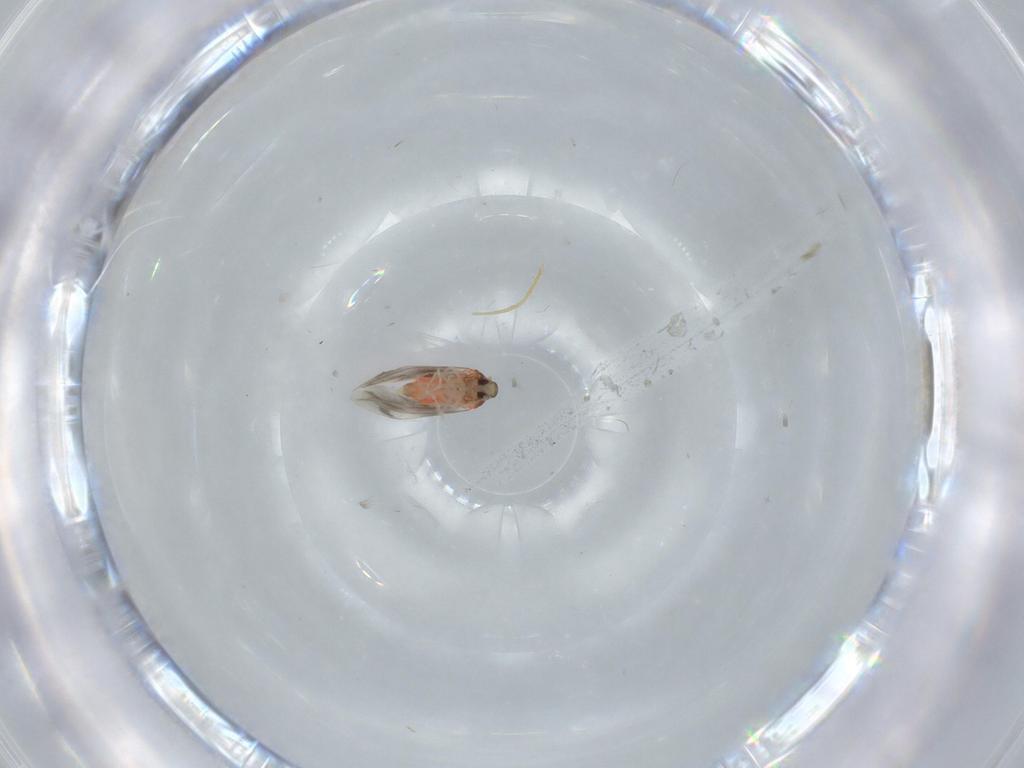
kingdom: Animalia
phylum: Arthropoda
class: Insecta
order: Hemiptera
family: Aleyrodidae
